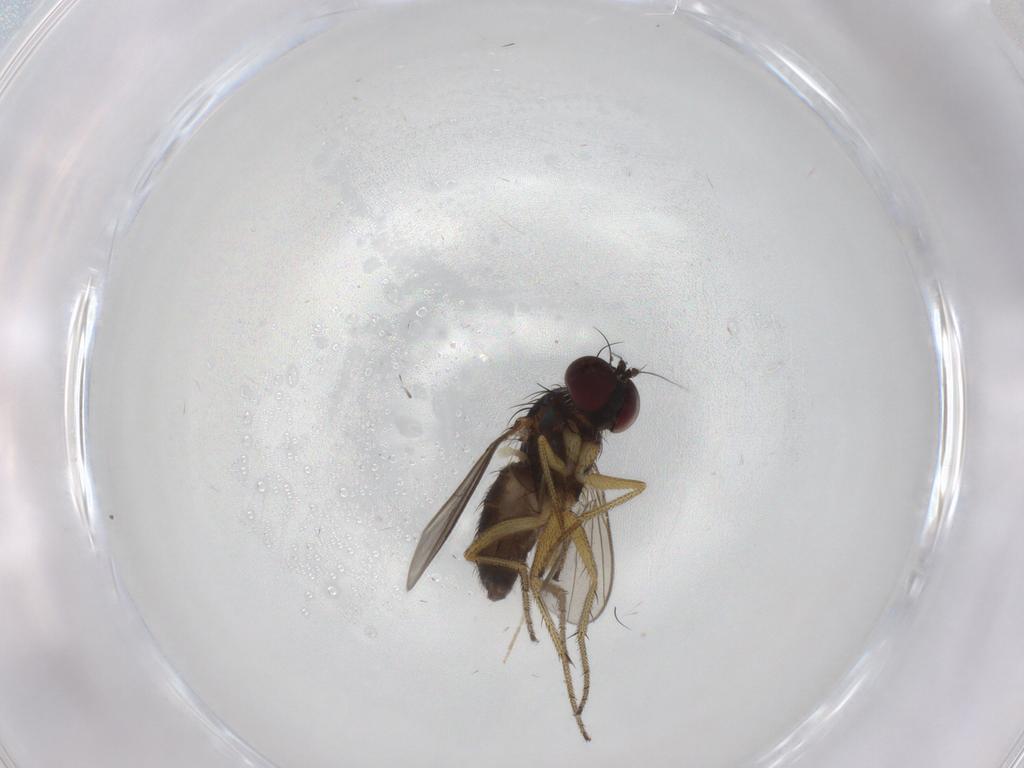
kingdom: Animalia
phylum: Arthropoda
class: Insecta
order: Diptera
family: Chironomidae
